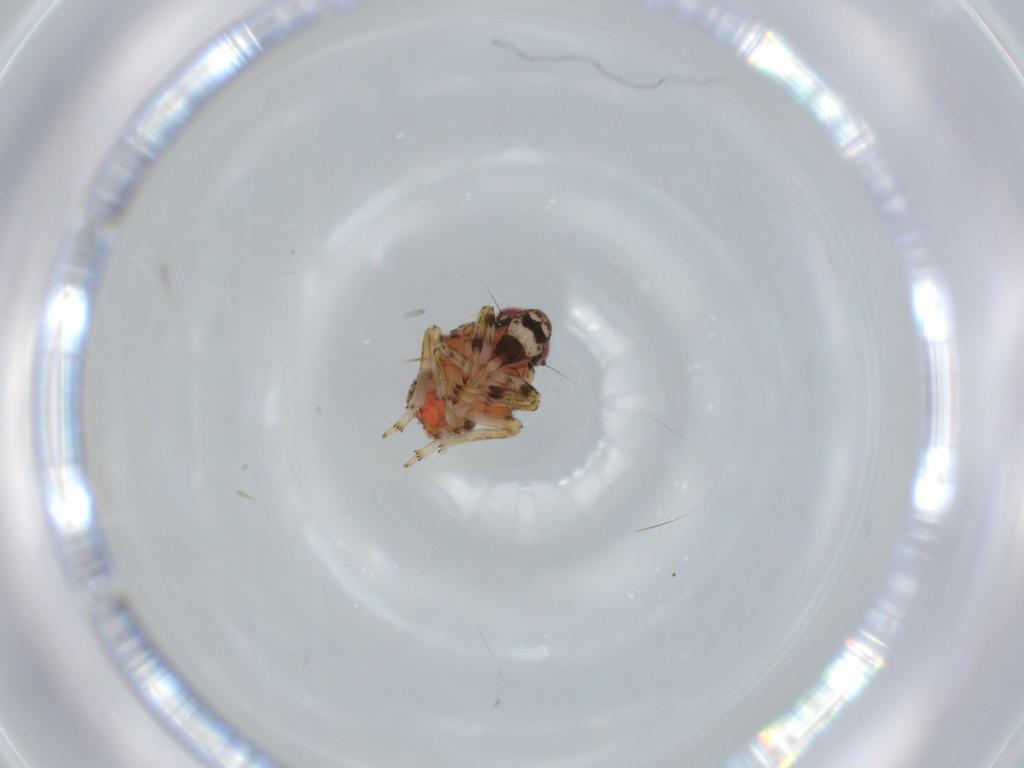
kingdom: Animalia
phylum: Arthropoda
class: Insecta
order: Hemiptera
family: Issidae
